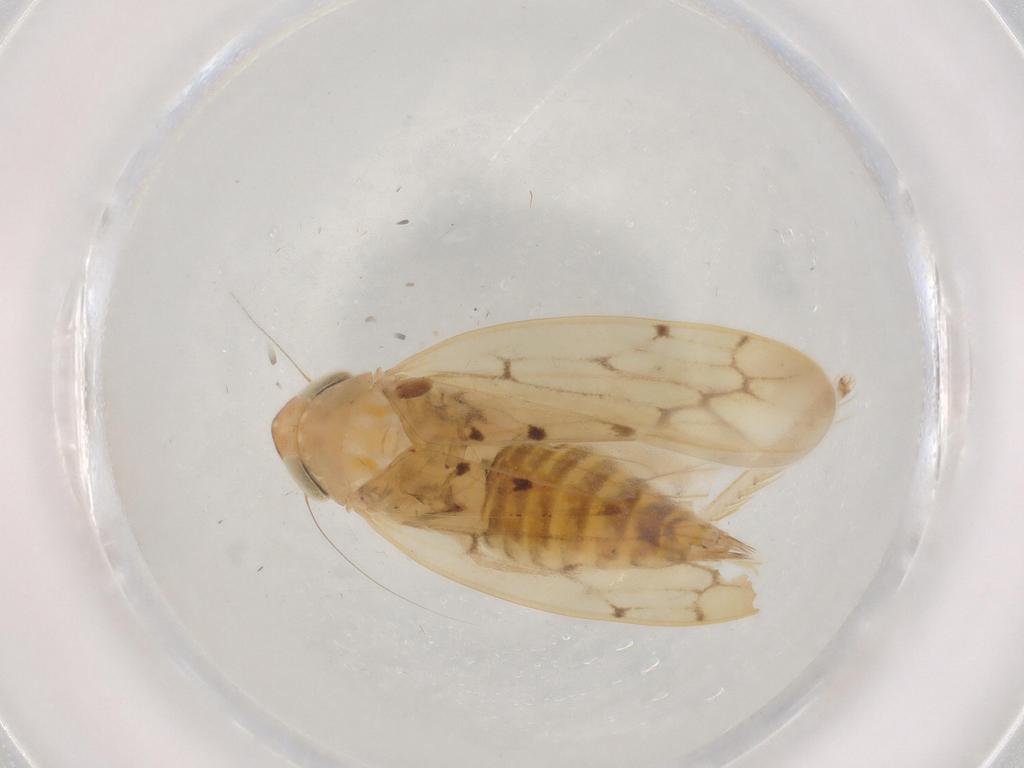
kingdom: Animalia
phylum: Arthropoda
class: Insecta
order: Hemiptera
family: Cicadellidae
